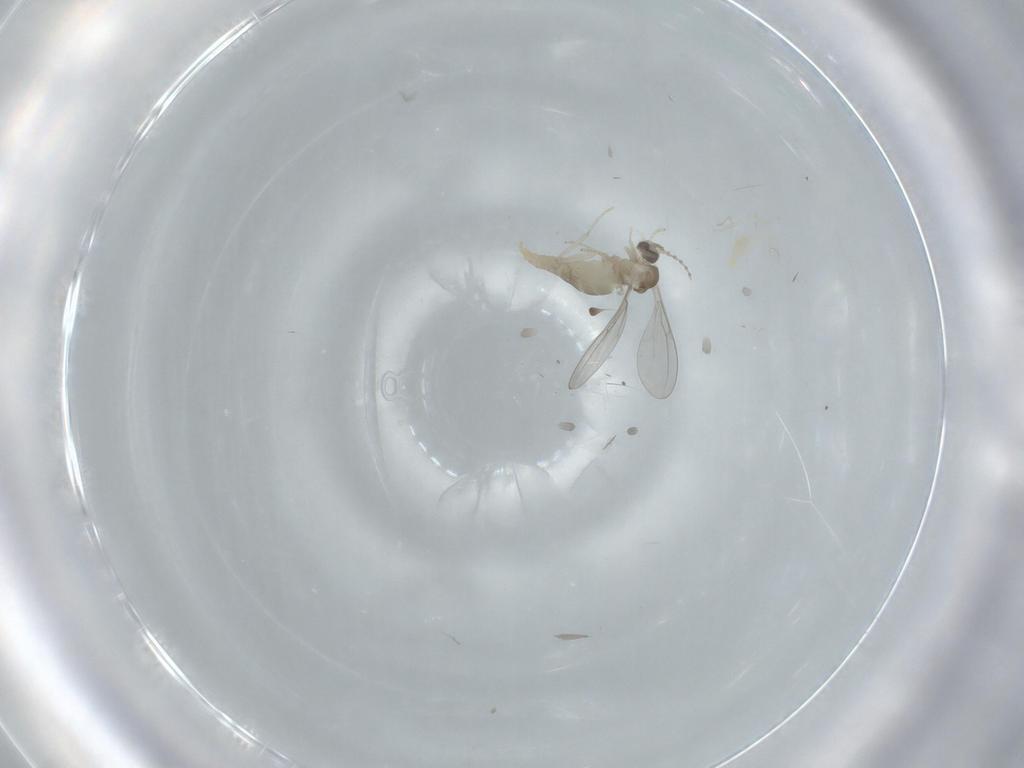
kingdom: Animalia
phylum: Arthropoda
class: Insecta
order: Diptera
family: Cecidomyiidae
